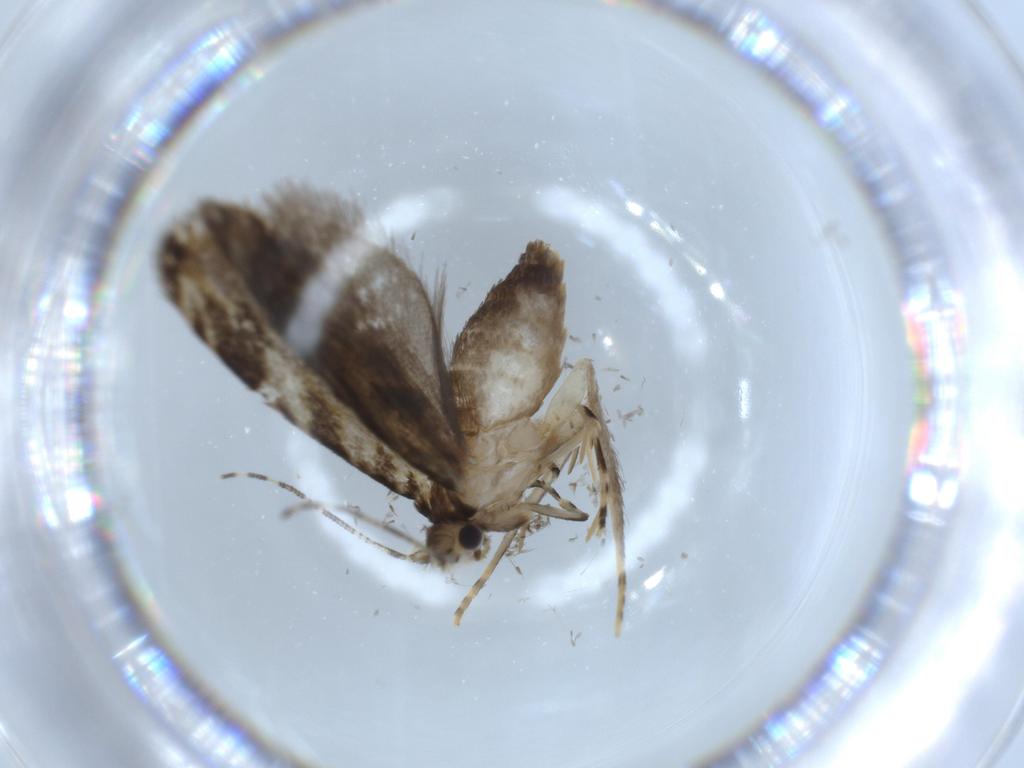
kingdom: Animalia
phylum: Arthropoda
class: Insecta
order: Lepidoptera
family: Tineidae
